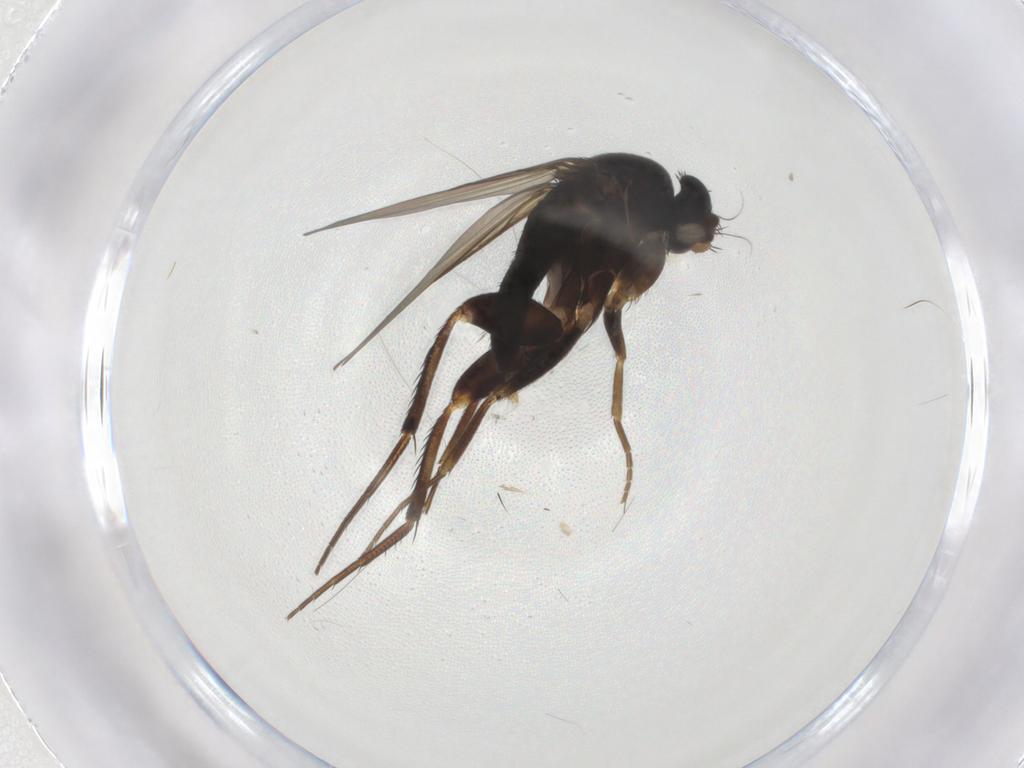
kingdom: Animalia
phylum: Arthropoda
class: Insecta
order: Diptera
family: Phoridae
